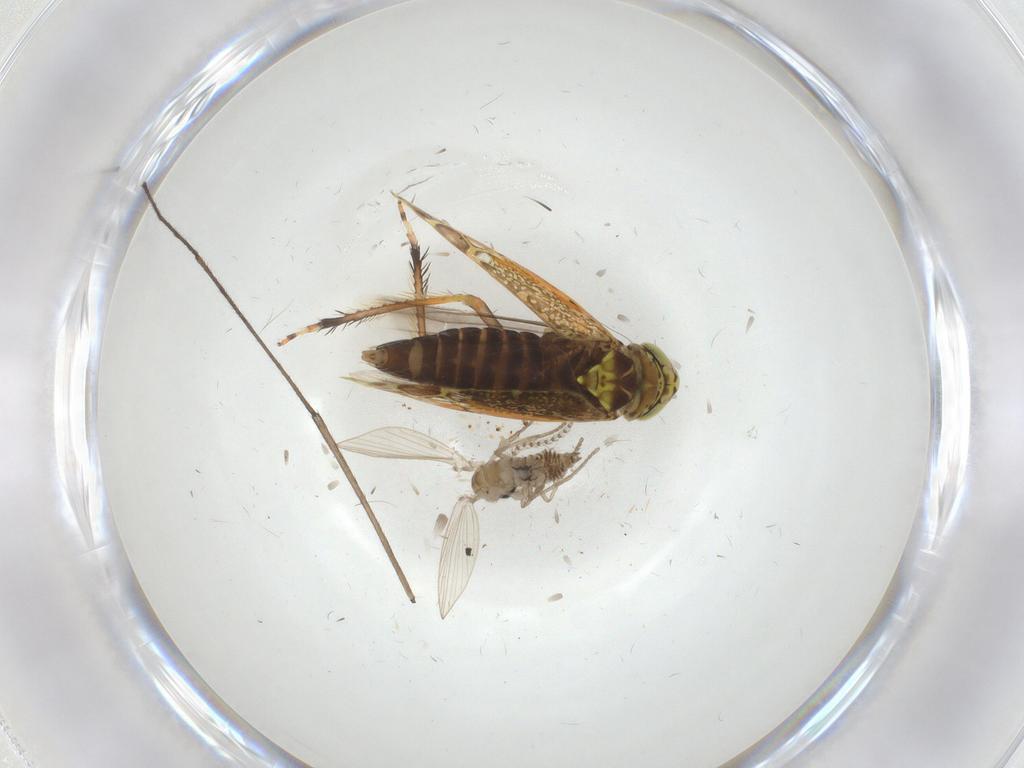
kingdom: Animalia
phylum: Arthropoda
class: Insecta
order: Hemiptera
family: Cicadellidae
